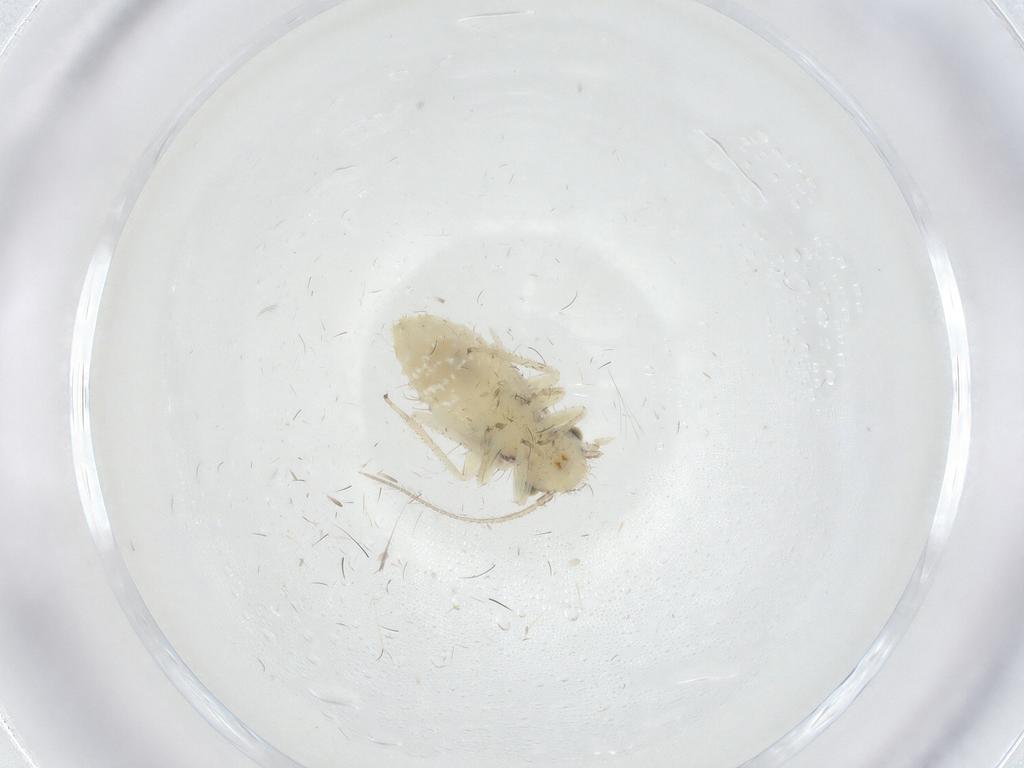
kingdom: Animalia
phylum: Arthropoda
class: Insecta
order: Psocodea
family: Pseudocaeciliidae
